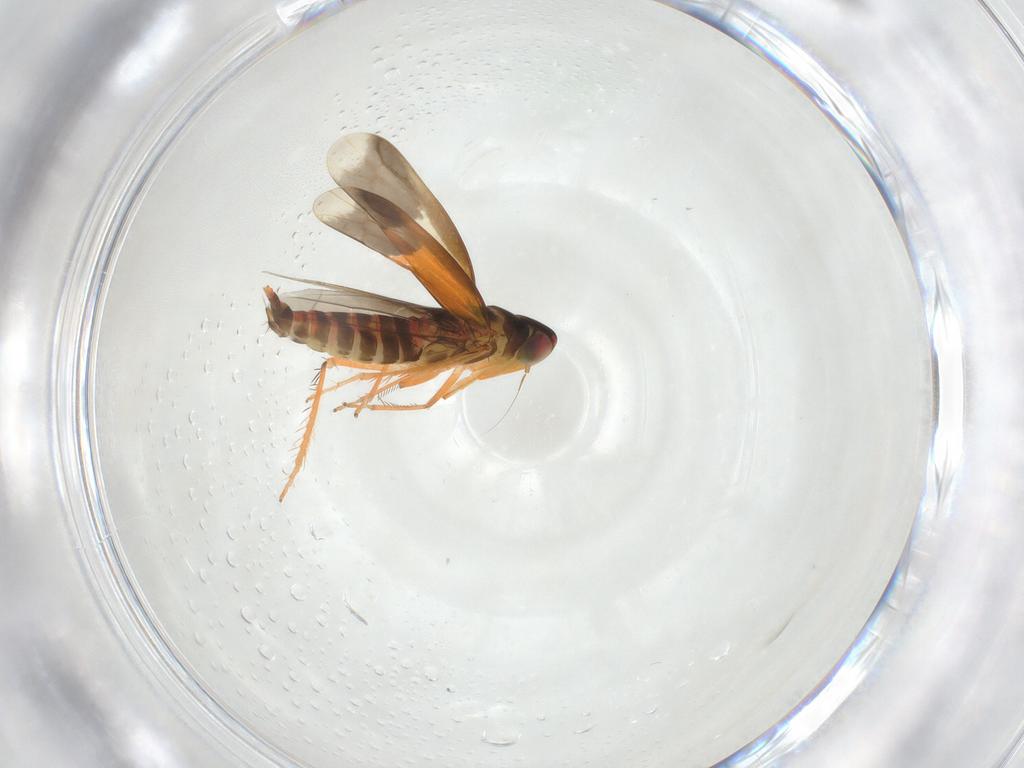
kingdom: Animalia
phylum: Arthropoda
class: Insecta
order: Hemiptera
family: Cicadellidae
